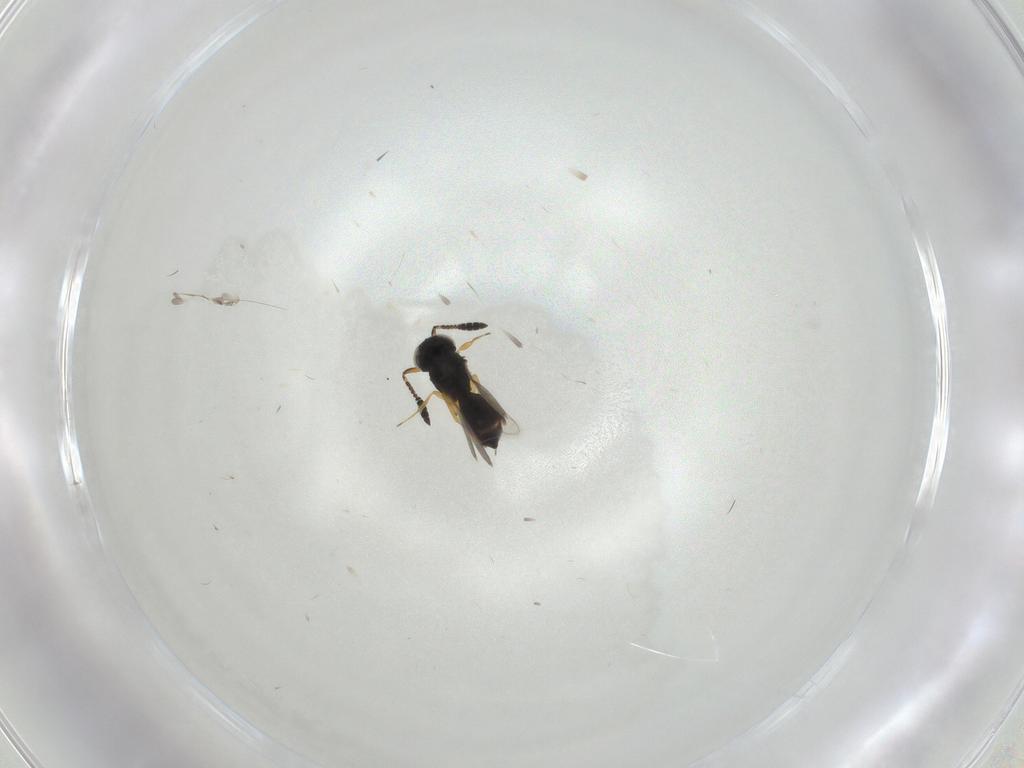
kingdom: Animalia
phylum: Arthropoda
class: Insecta
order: Hymenoptera
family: Scelionidae
